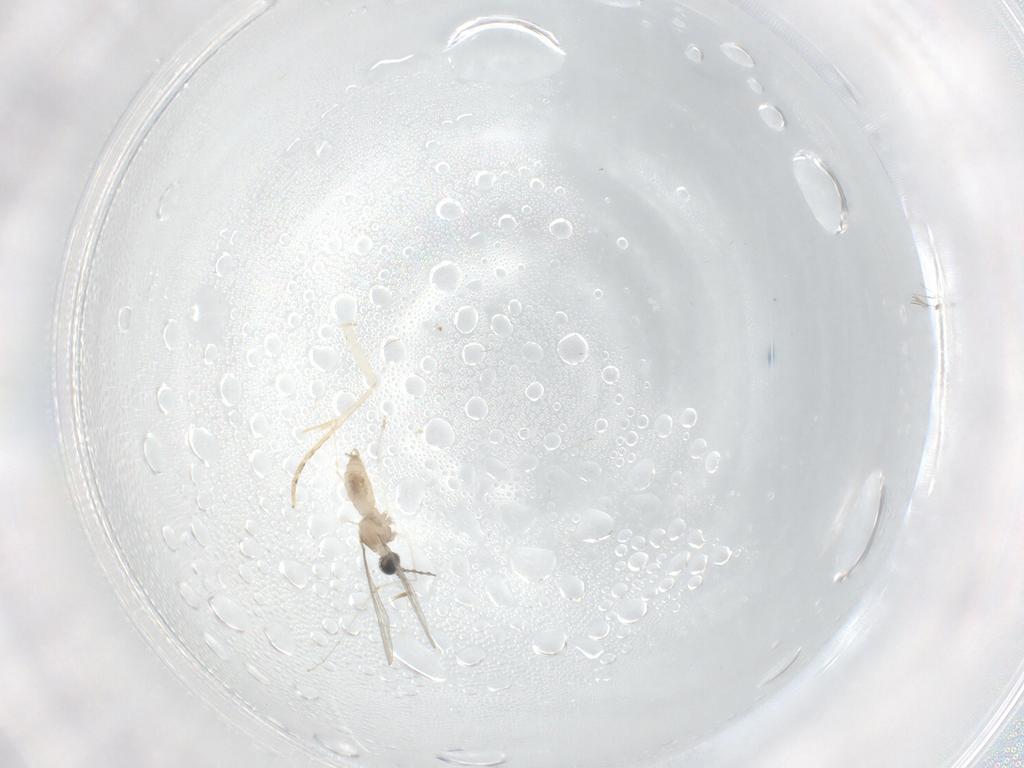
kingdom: Animalia
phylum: Arthropoda
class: Insecta
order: Diptera
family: Cecidomyiidae
